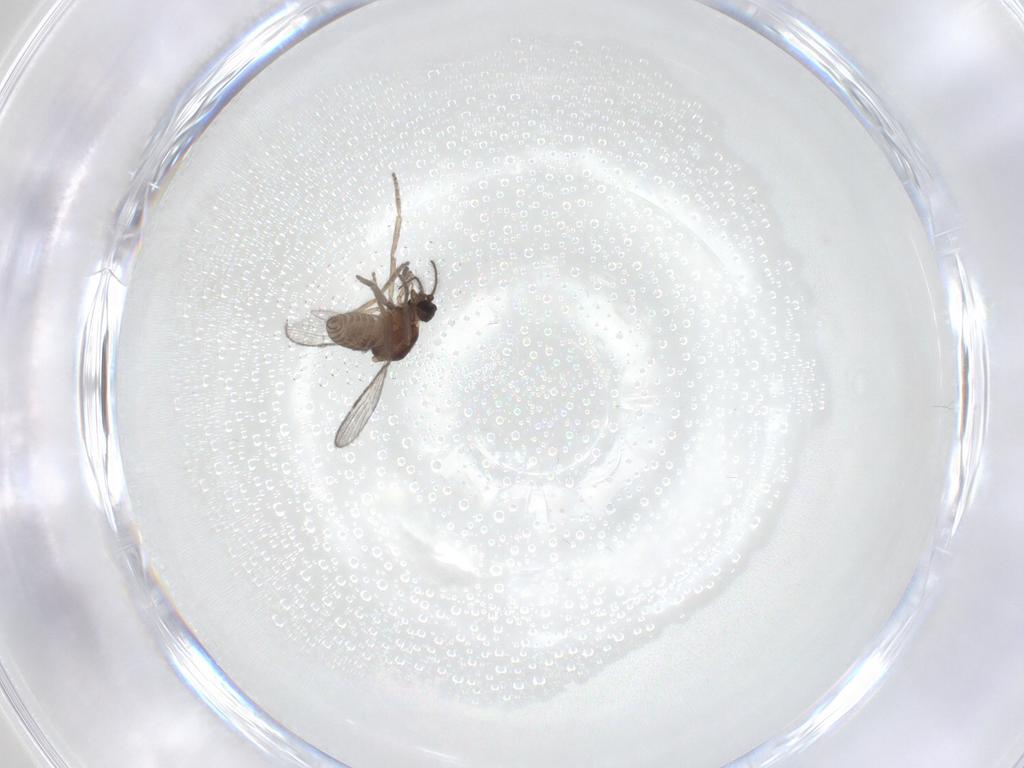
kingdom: Animalia
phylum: Arthropoda
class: Insecta
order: Diptera
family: Ceratopogonidae
